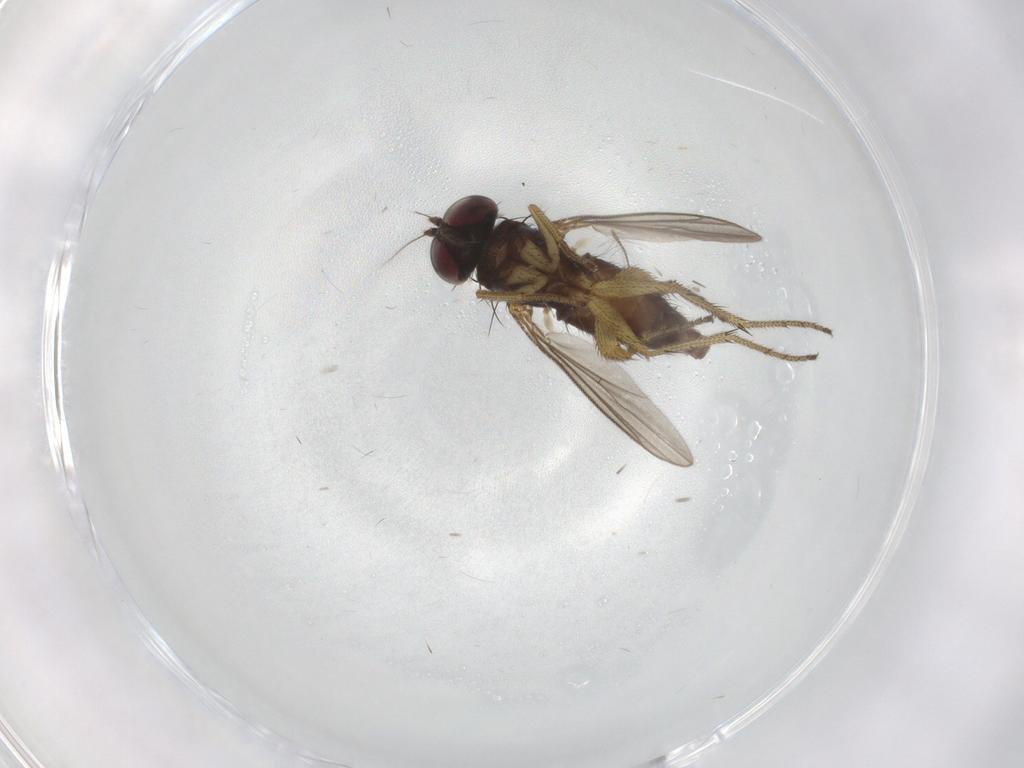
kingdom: Animalia
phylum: Arthropoda
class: Insecta
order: Diptera
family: Chironomidae
